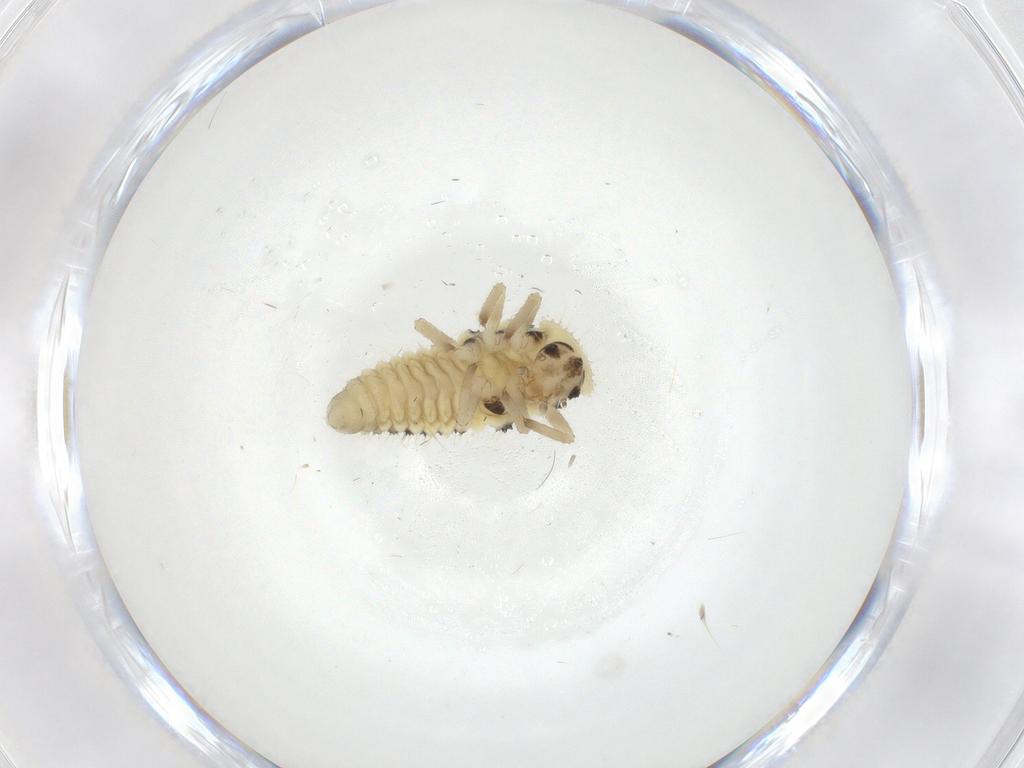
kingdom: Animalia
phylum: Arthropoda
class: Insecta
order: Coleoptera
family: Coccinellidae
